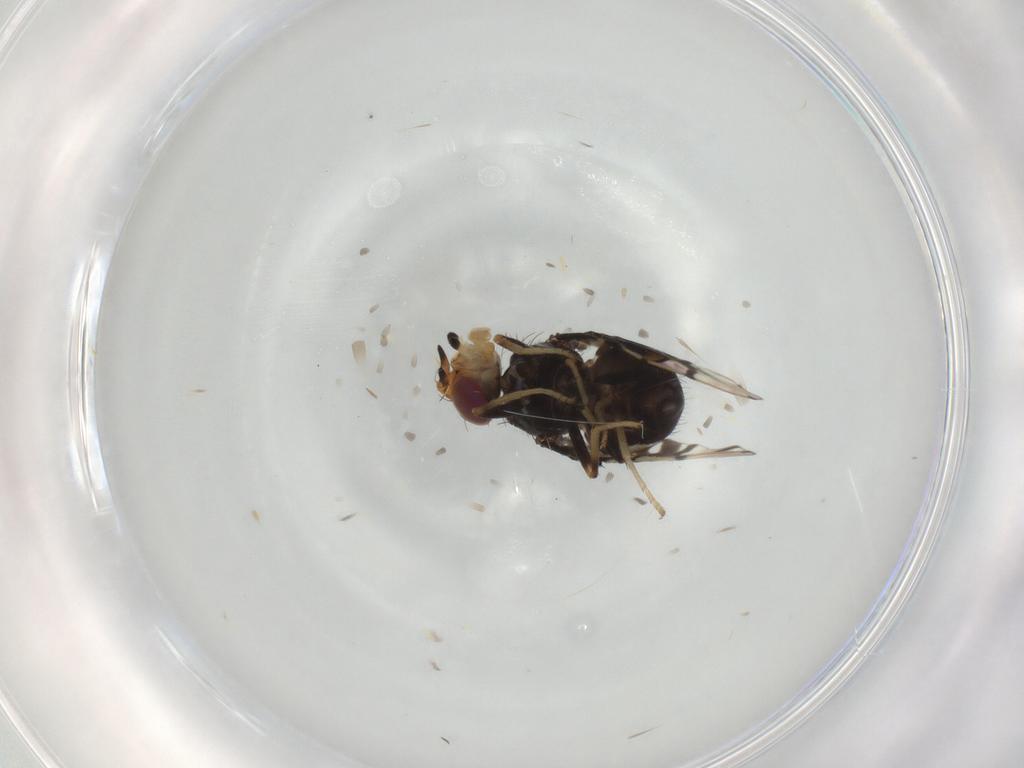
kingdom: Animalia
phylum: Arthropoda
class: Insecta
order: Diptera
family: Tephritidae
